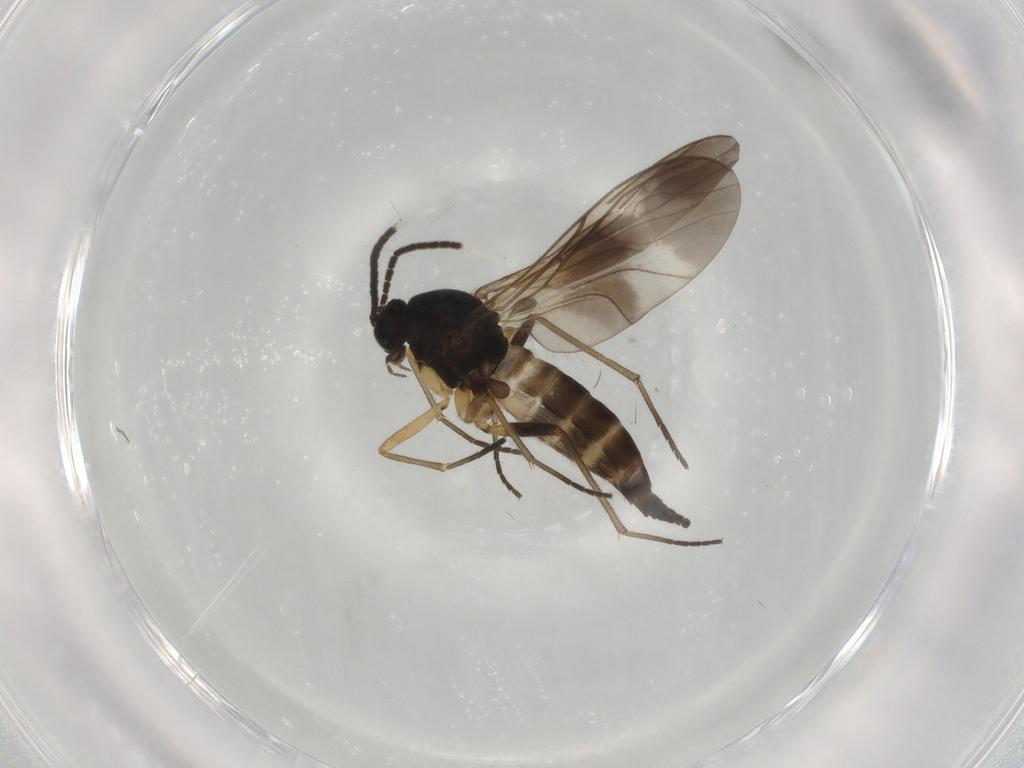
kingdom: Animalia
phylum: Arthropoda
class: Insecta
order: Diptera
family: Sciaridae
